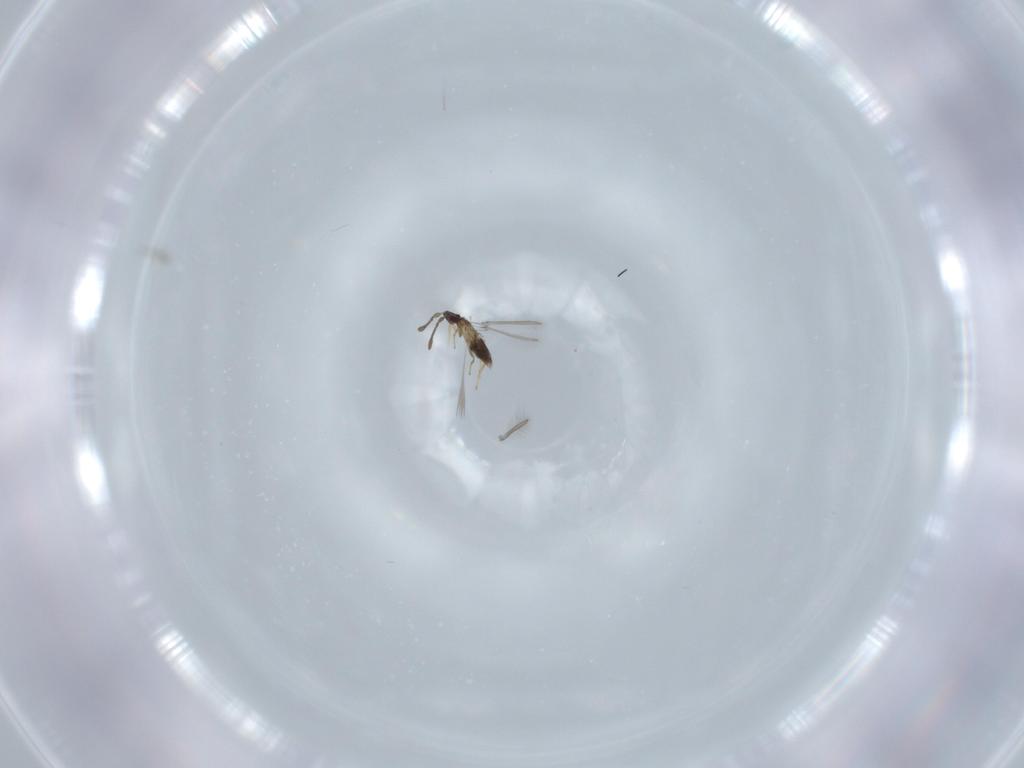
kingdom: Animalia
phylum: Arthropoda
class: Insecta
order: Hymenoptera
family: Mymaridae
